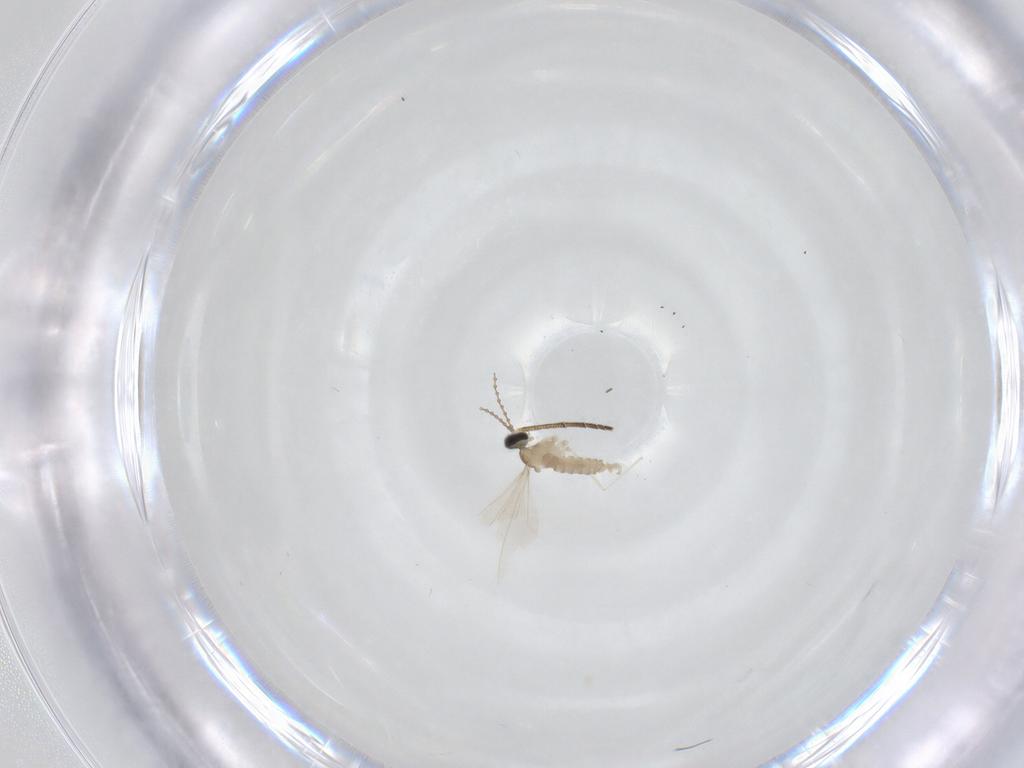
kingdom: Animalia
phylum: Arthropoda
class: Insecta
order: Diptera
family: Cecidomyiidae
